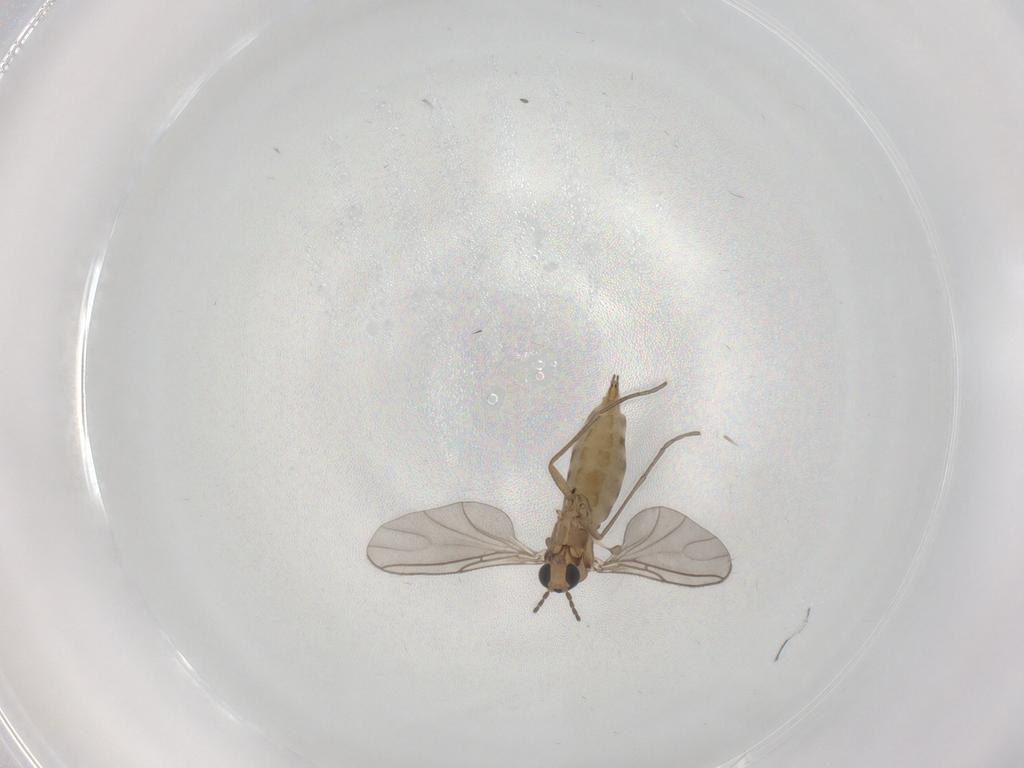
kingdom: Animalia
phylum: Arthropoda
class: Insecta
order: Diptera
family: Sciaridae
